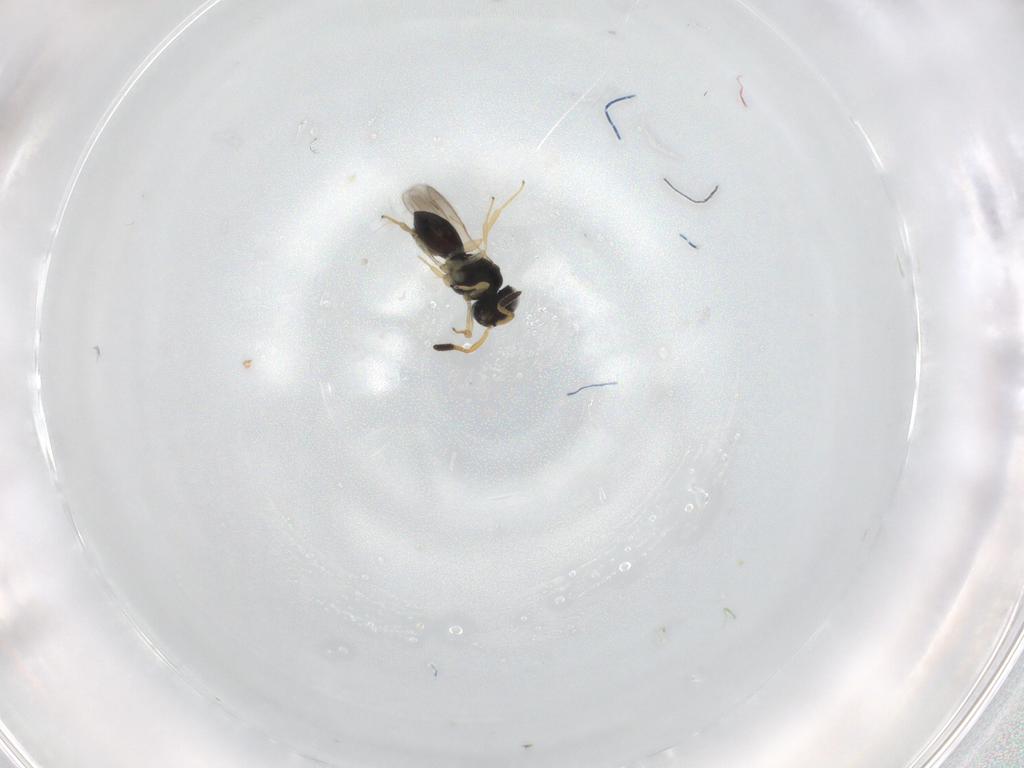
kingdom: Animalia
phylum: Arthropoda
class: Insecta
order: Hymenoptera
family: Scelionidae
